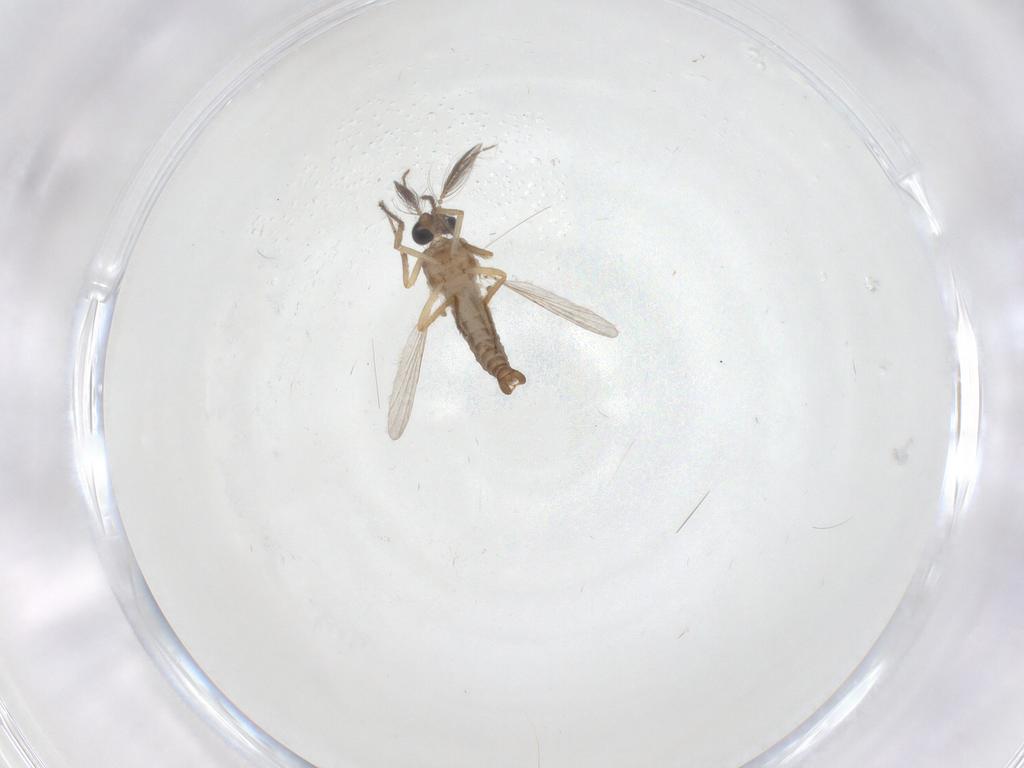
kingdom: Animalia
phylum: Arthropoda
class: Insecta
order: Diptera
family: Ceratopogonidae
